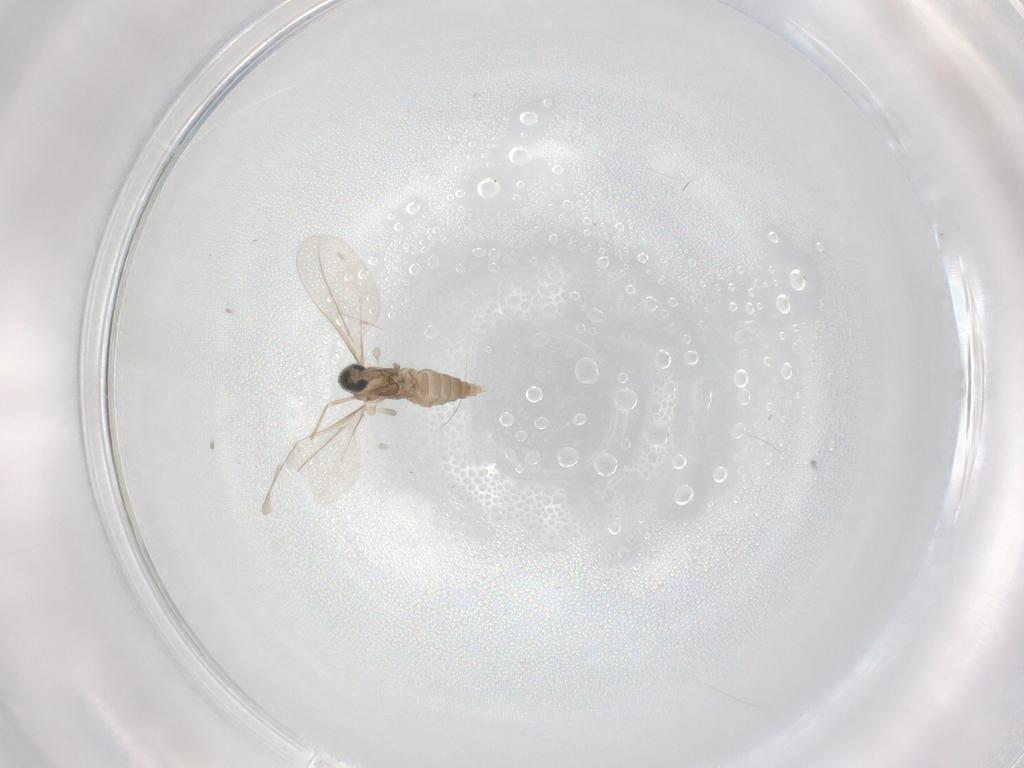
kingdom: Animalia
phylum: Arthropoda
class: Insecta
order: Diptera
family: Cecidomyiidae
